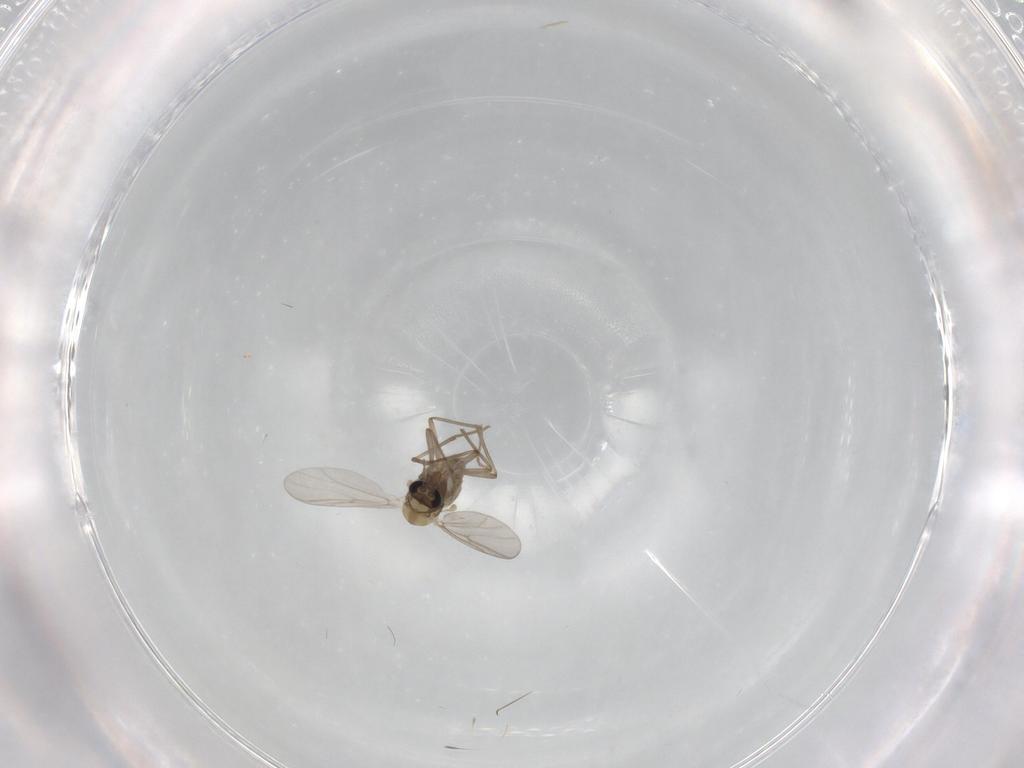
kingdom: Animalia
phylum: Arthropoda
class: Insecta
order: Diptera
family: Chironomidae
